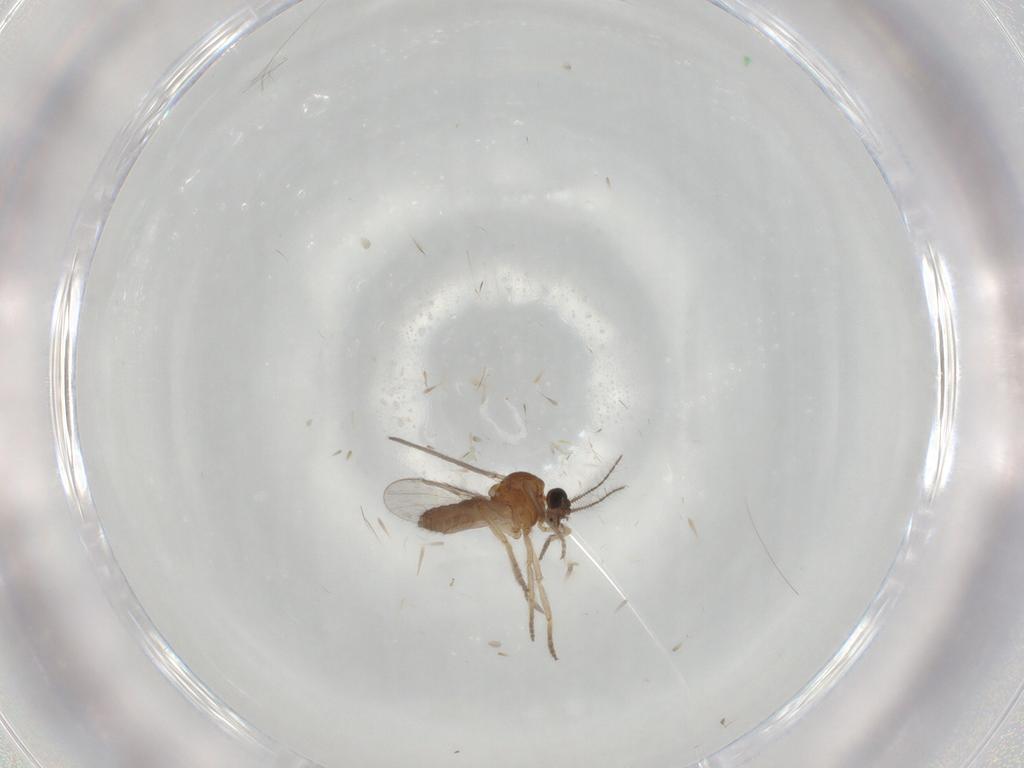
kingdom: Animalia
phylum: Arthropoda
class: Insecta
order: Diptera
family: Ceratopogonidae
